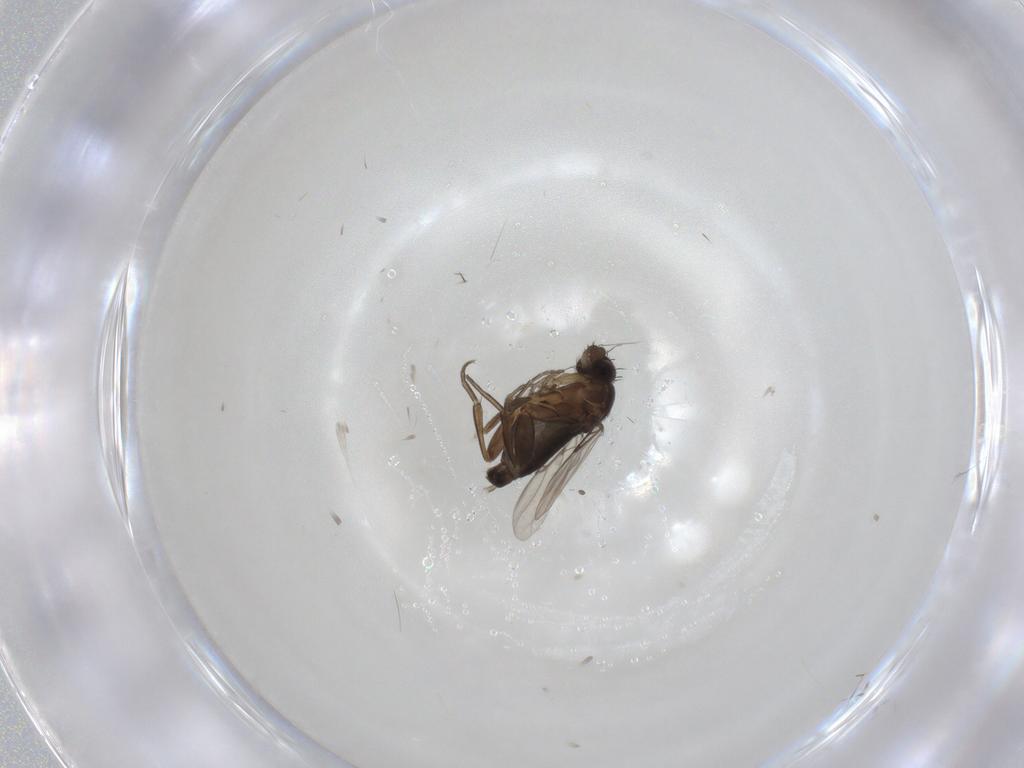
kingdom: Animalia
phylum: Arthropoda
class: Insecta
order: Diptera
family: Phoridae
